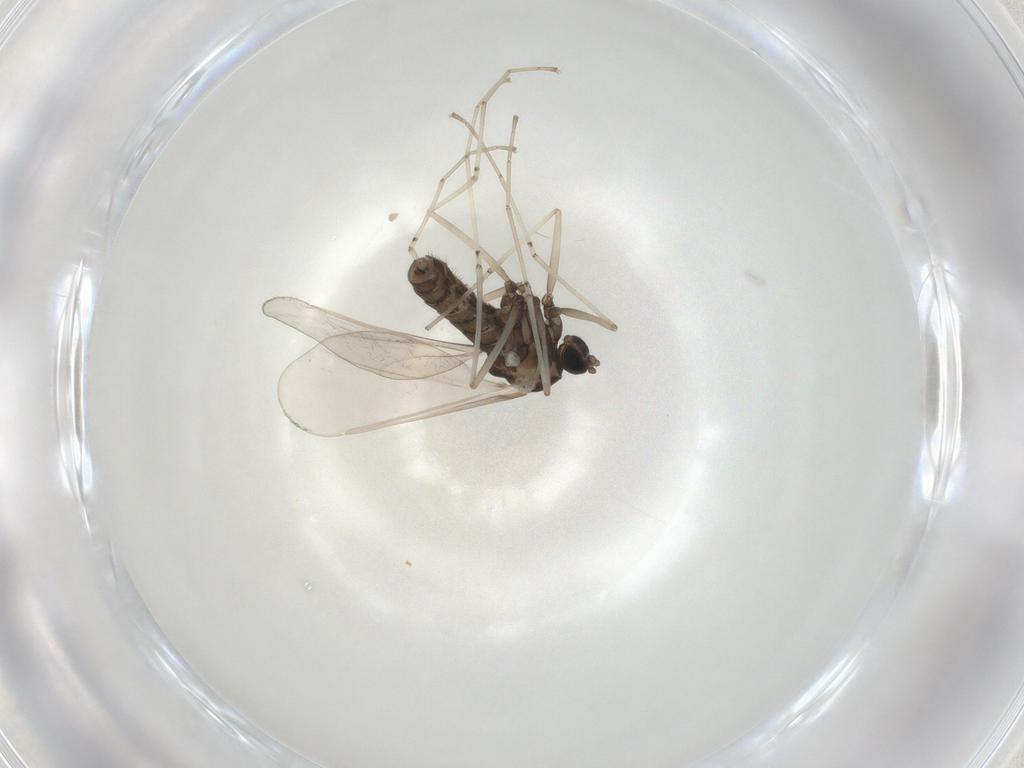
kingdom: Animalia
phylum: Arthropoda
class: Insecta
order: Diptera
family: Cecidomyiidae
